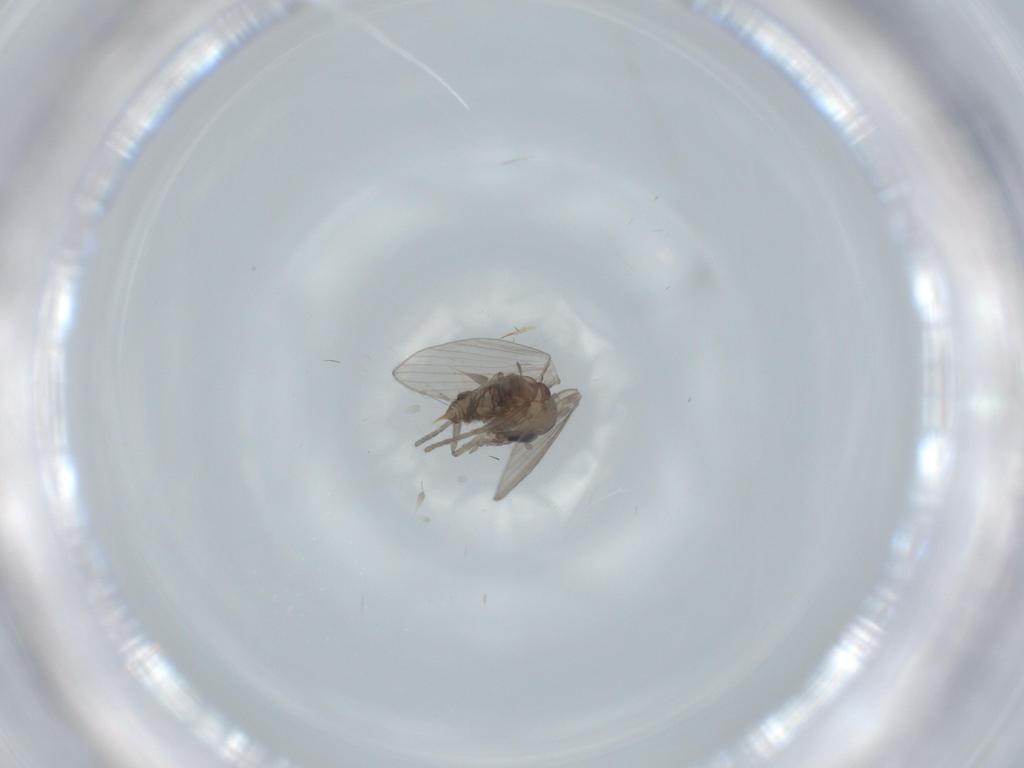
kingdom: Animalia
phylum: Arthropoda
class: Insecta
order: Diptera
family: Psychodidae
